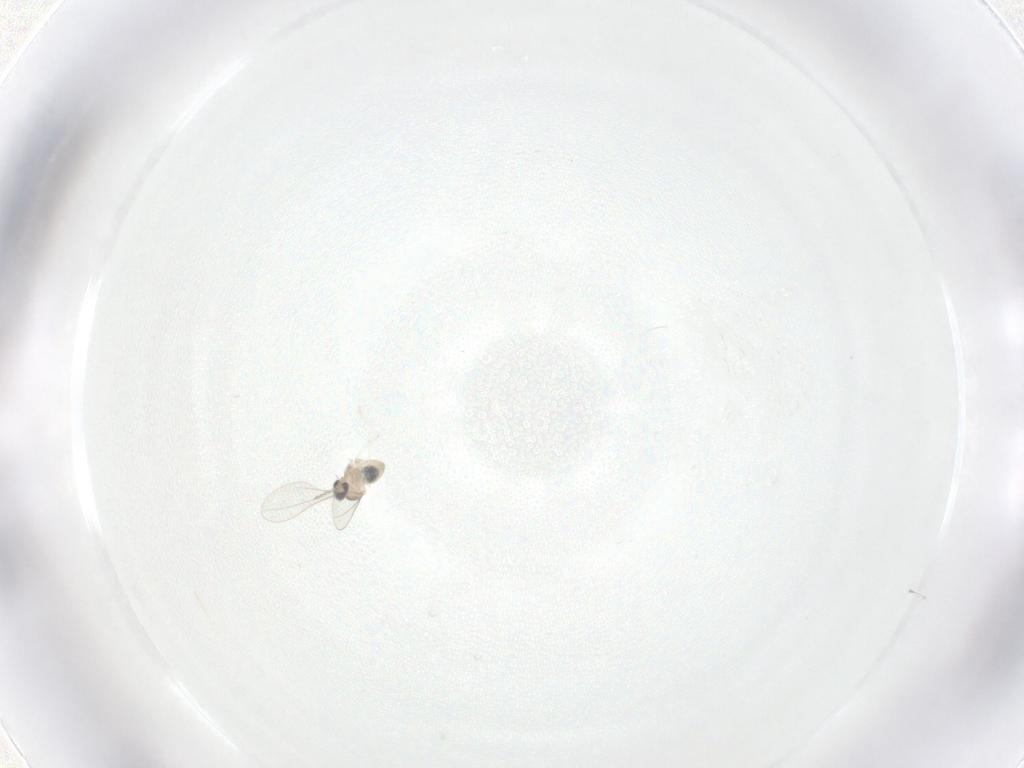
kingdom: Animalia
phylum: Arthropoda
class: Insecta
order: Diptera
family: Cecidomyiidae
